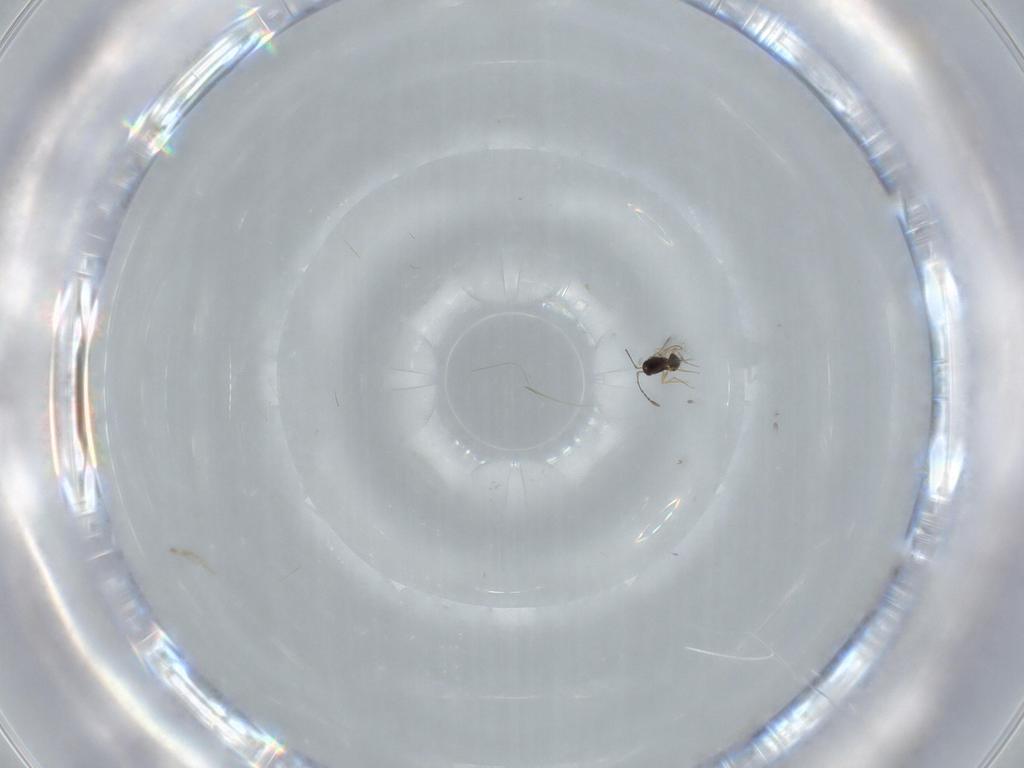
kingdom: Animalia
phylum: Arthropoda
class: Insecta
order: Hymenoptera
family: Mymaridae
